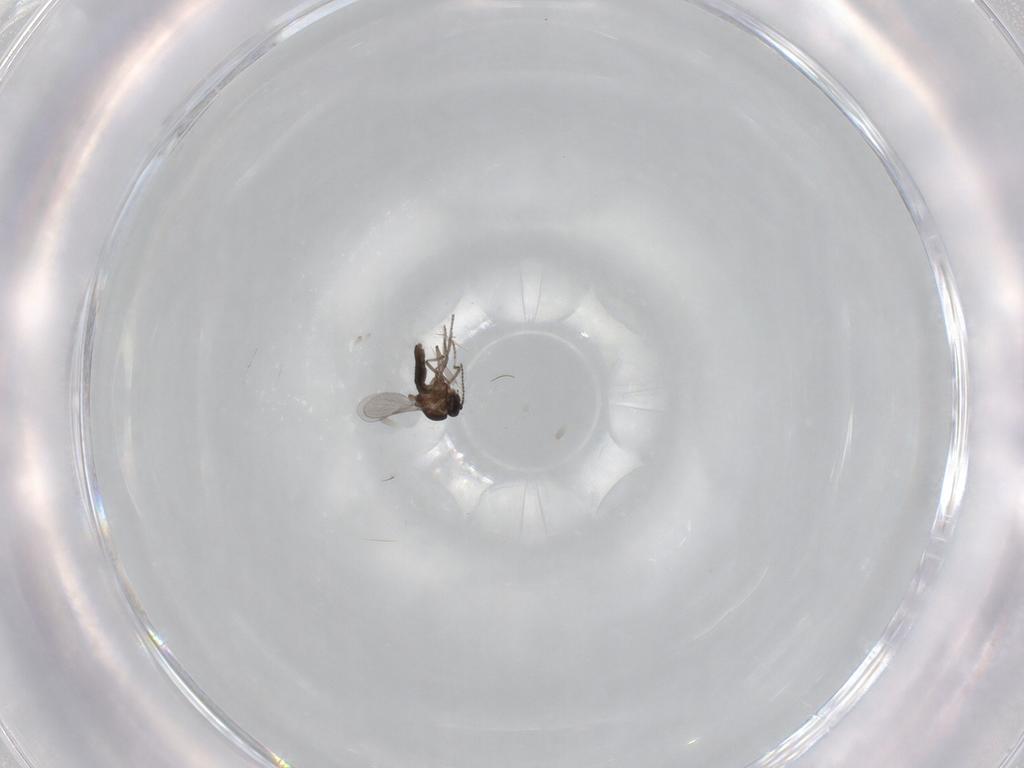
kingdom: Animalia
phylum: Arthropoda
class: Insecta
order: Diptera
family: Ceratopogonidae
